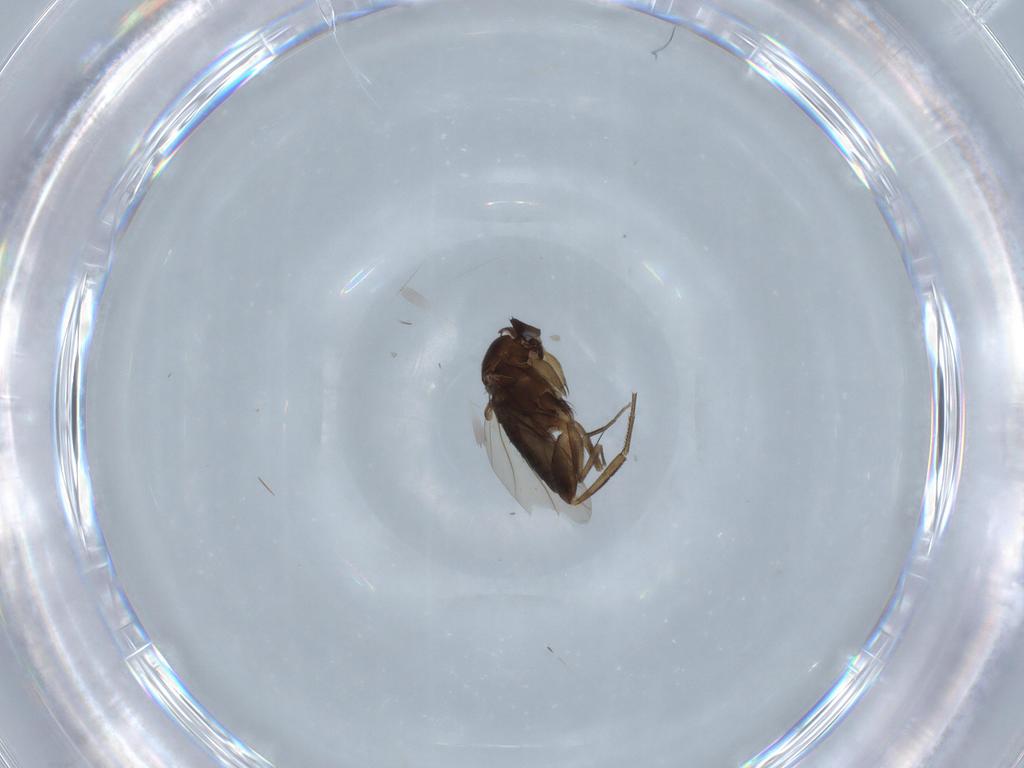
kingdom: Animalia
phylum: Arthropoda
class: Insecta
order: Diptera
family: Phoridae
